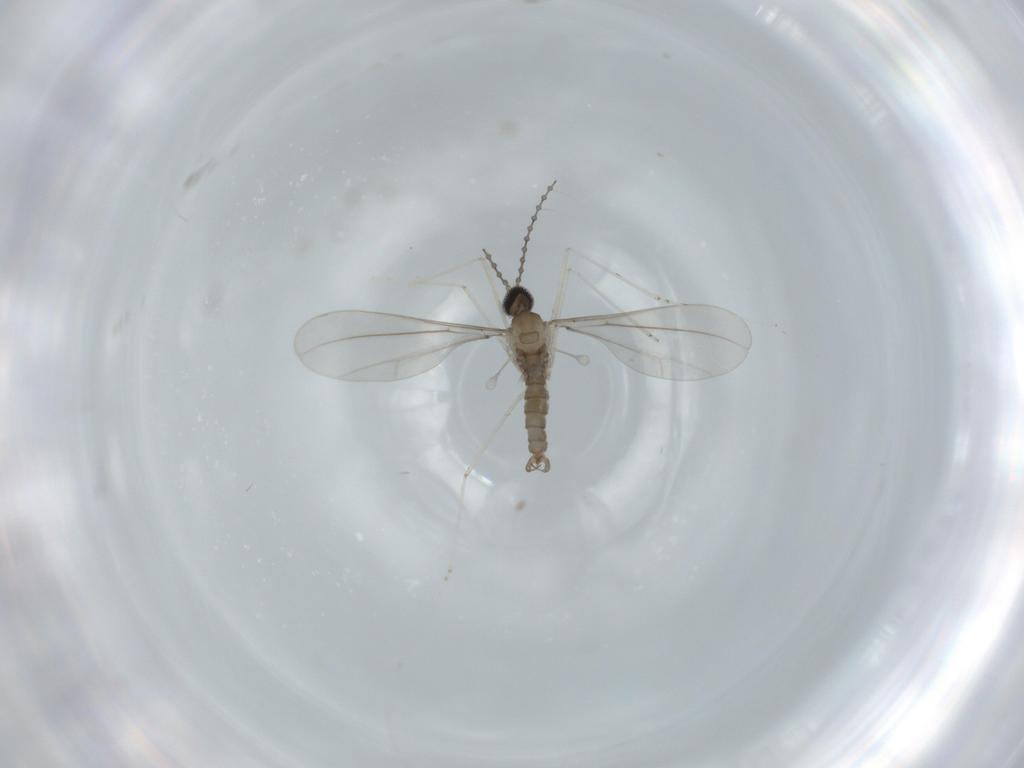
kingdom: Animalia
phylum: Arthropoda
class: Insecta
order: Diptera
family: Cecidomyiidae
